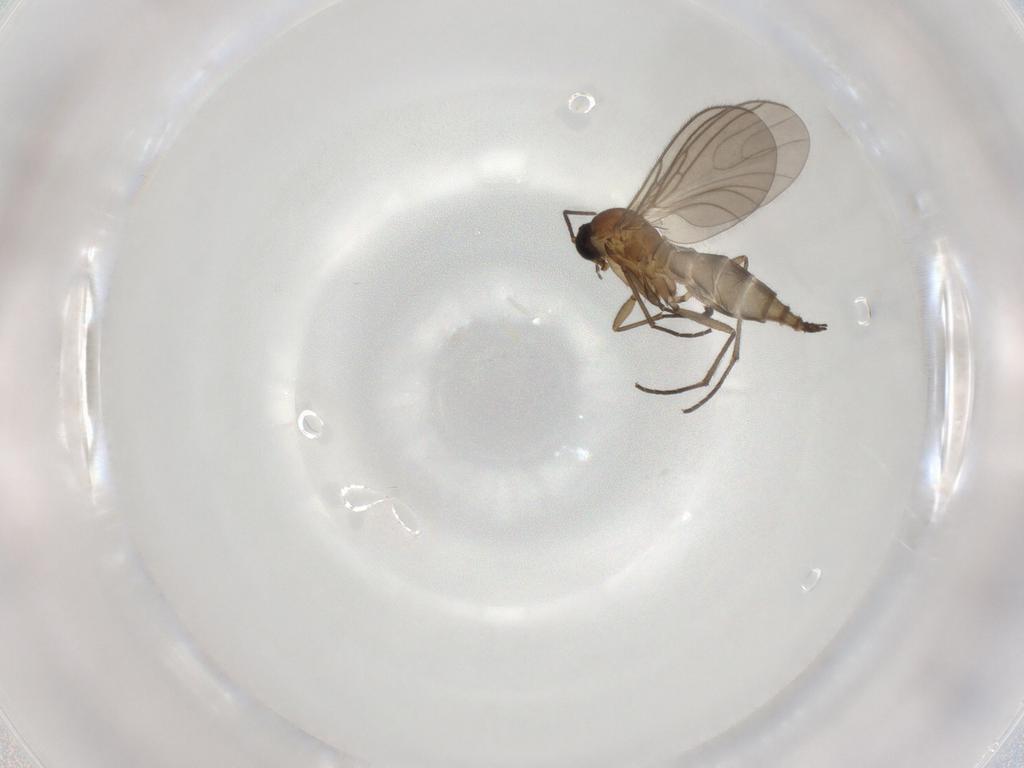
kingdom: Animalia
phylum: Arthropoda
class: Insecta
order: Diptera
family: Sciaridae
